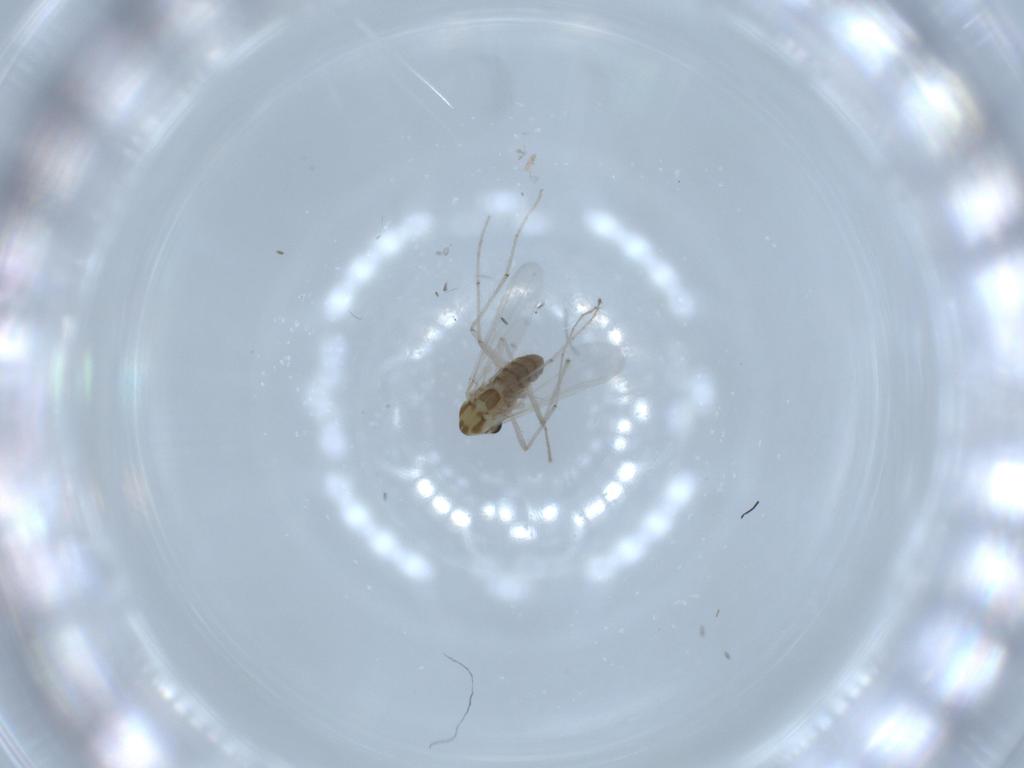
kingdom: Animalia
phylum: Arthropoda
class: Insecta
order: Diptera
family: Chironomidae
